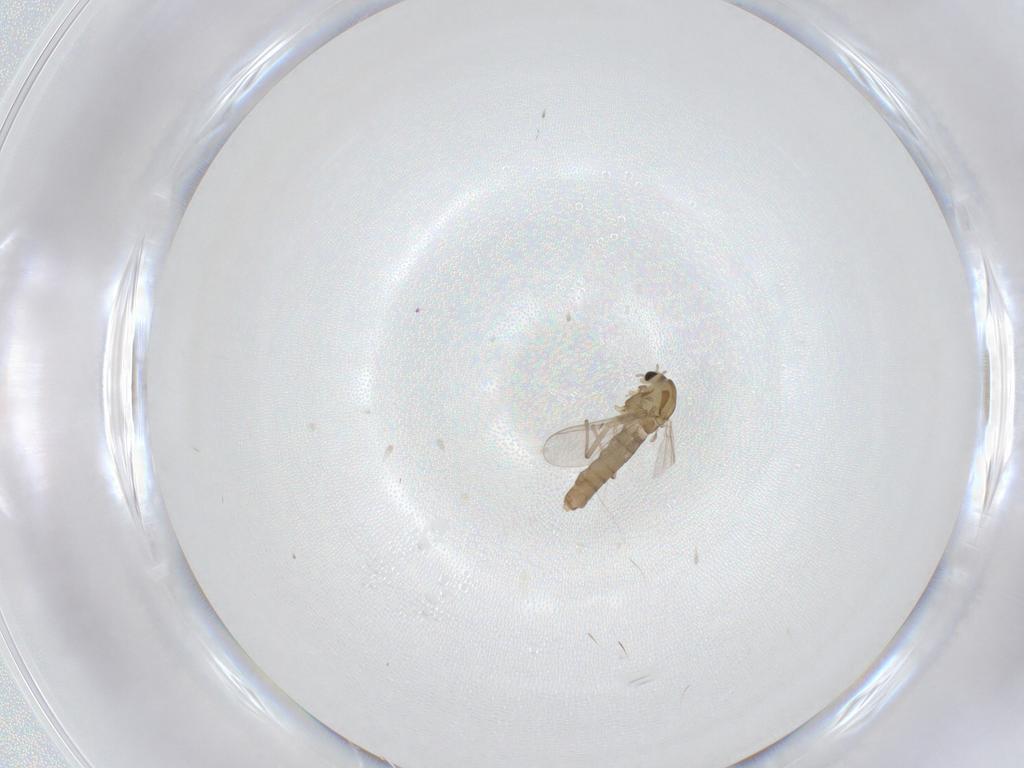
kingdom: Animalia
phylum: Arthropoda
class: Insecta
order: Diptera
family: Chironomidae
